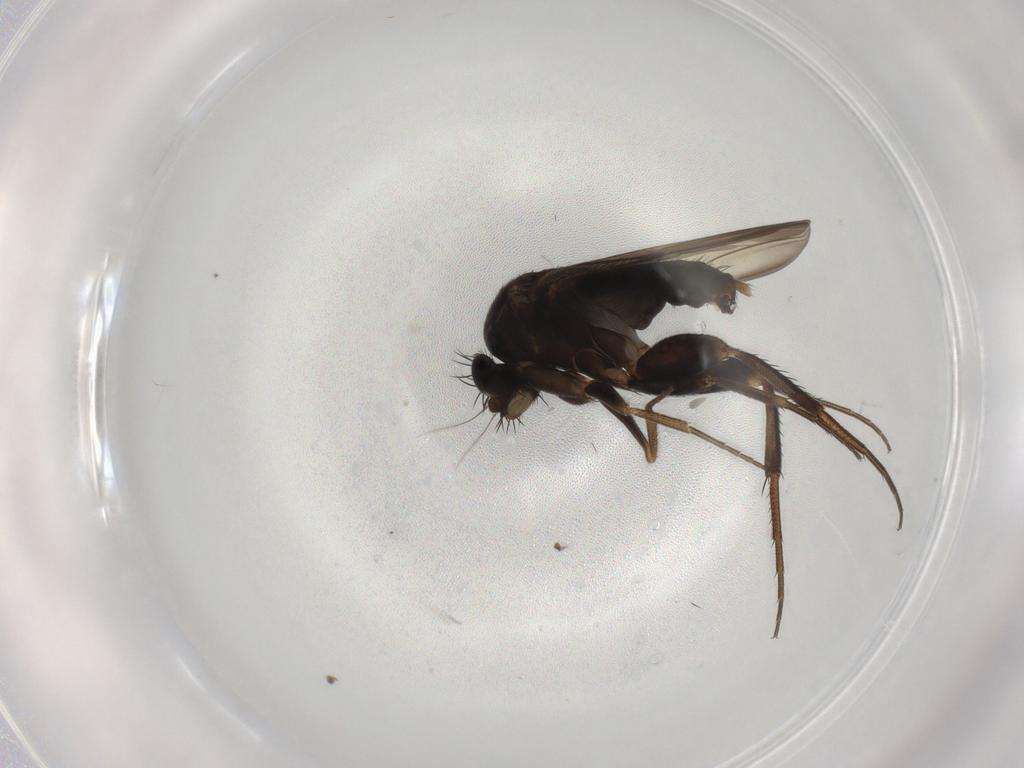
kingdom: Animalia
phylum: Arthropoda
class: Insecta
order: Diptera
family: Phoridae
